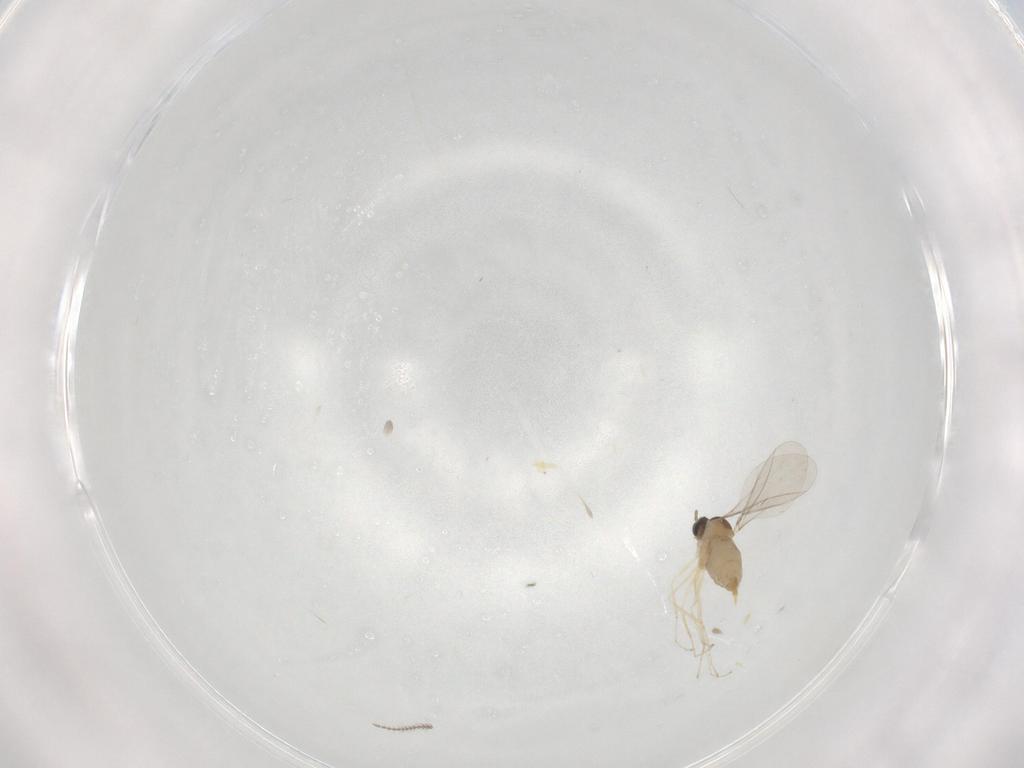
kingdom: Animalia
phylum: Arthropoda
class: Insecta
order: Diptera
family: Cecidomyiidae
